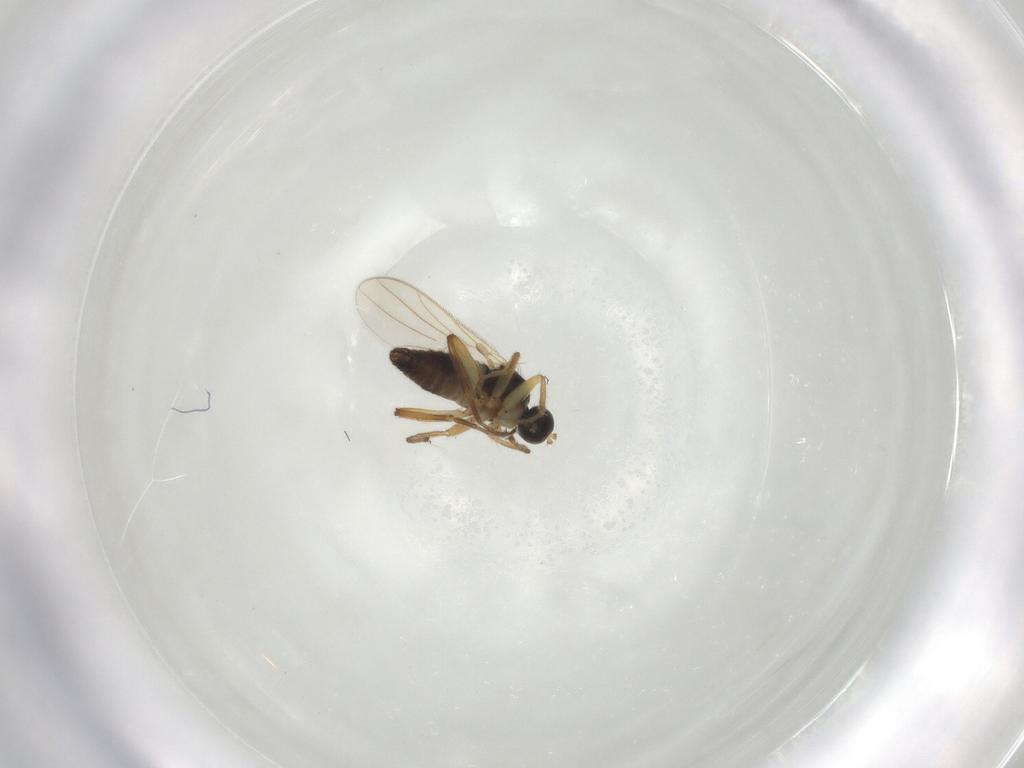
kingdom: Animalia
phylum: Arthropoda
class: Insecta
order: Diptera
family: Hybotidae
